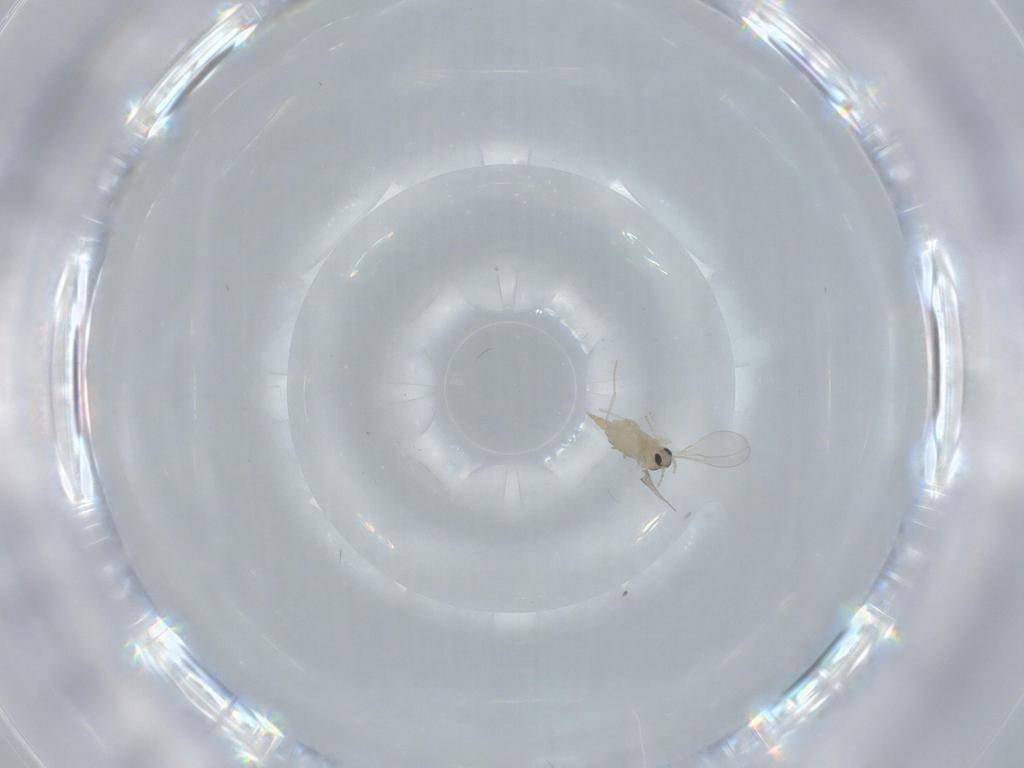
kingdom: Animalia
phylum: Arthropoda
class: Insecta
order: Diptera
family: Cecidomyiidae
